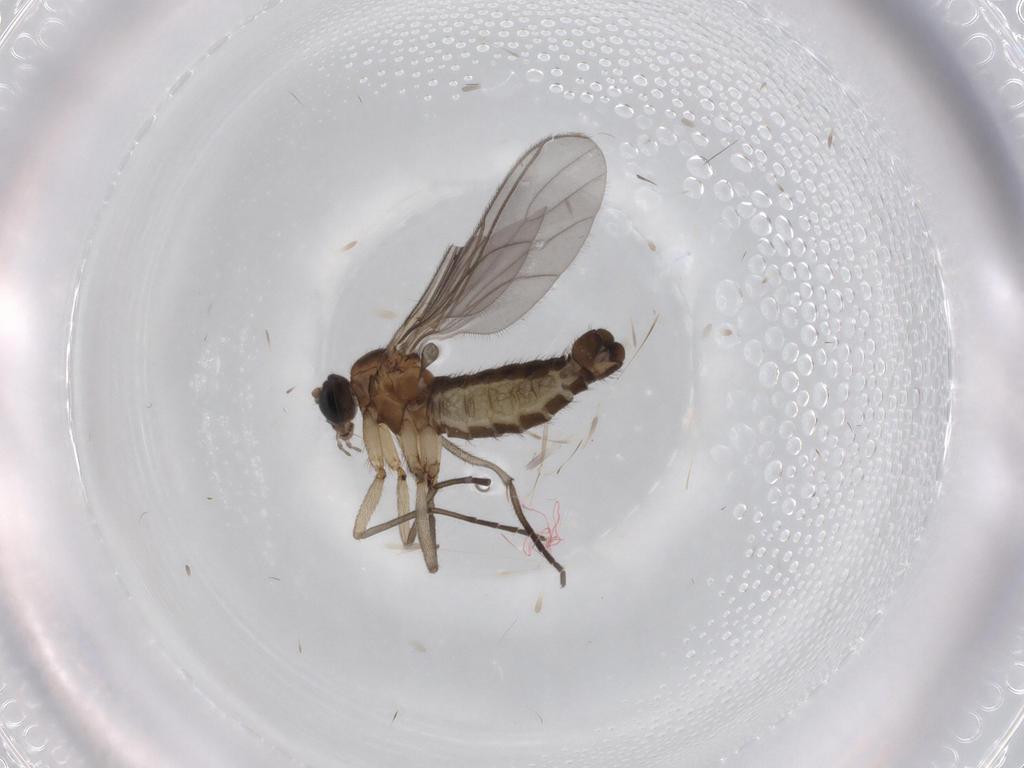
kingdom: Animalia
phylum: Arthropoda
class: Insecta
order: Diptera
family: Sciaridae
